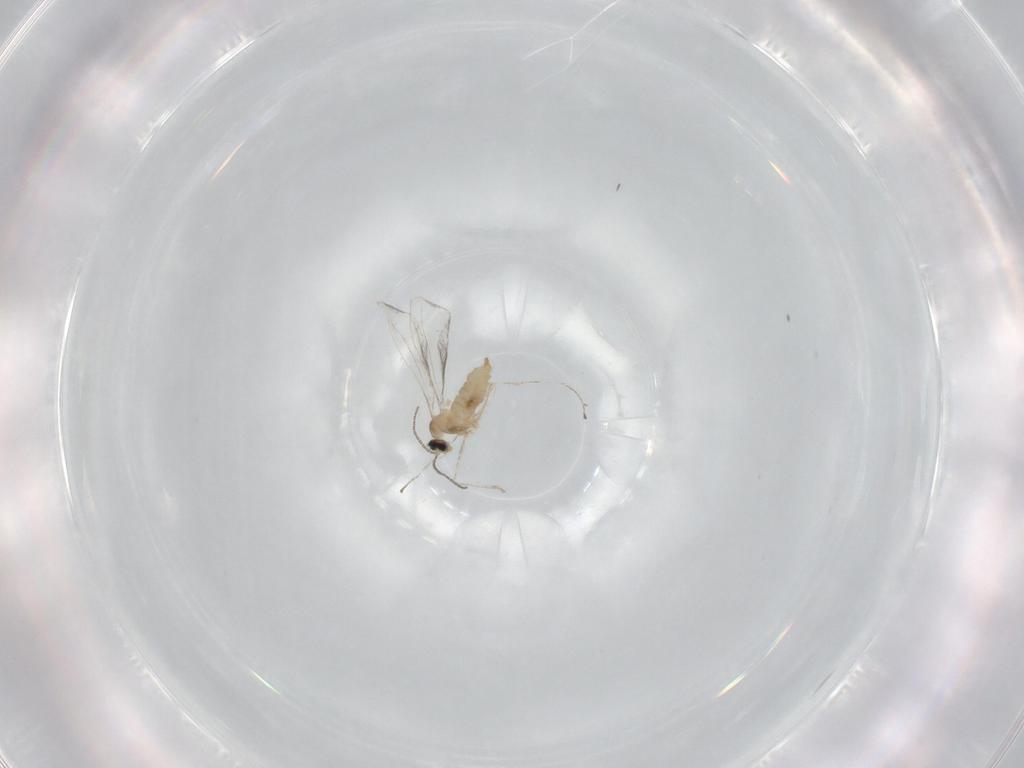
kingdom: Animalia
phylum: Arthropoda
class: Insecta
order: Diptera
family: Cecidomyiidae
